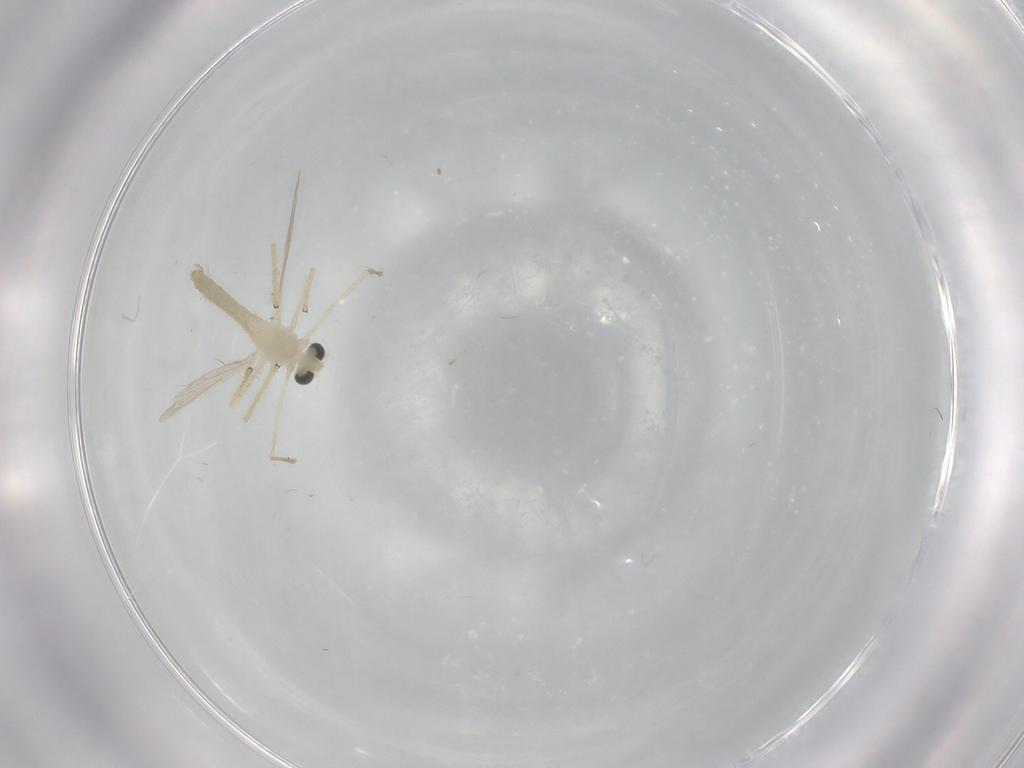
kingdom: Animalia
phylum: Arthropoda
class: Insecta
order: Diptera
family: Chironomidae
